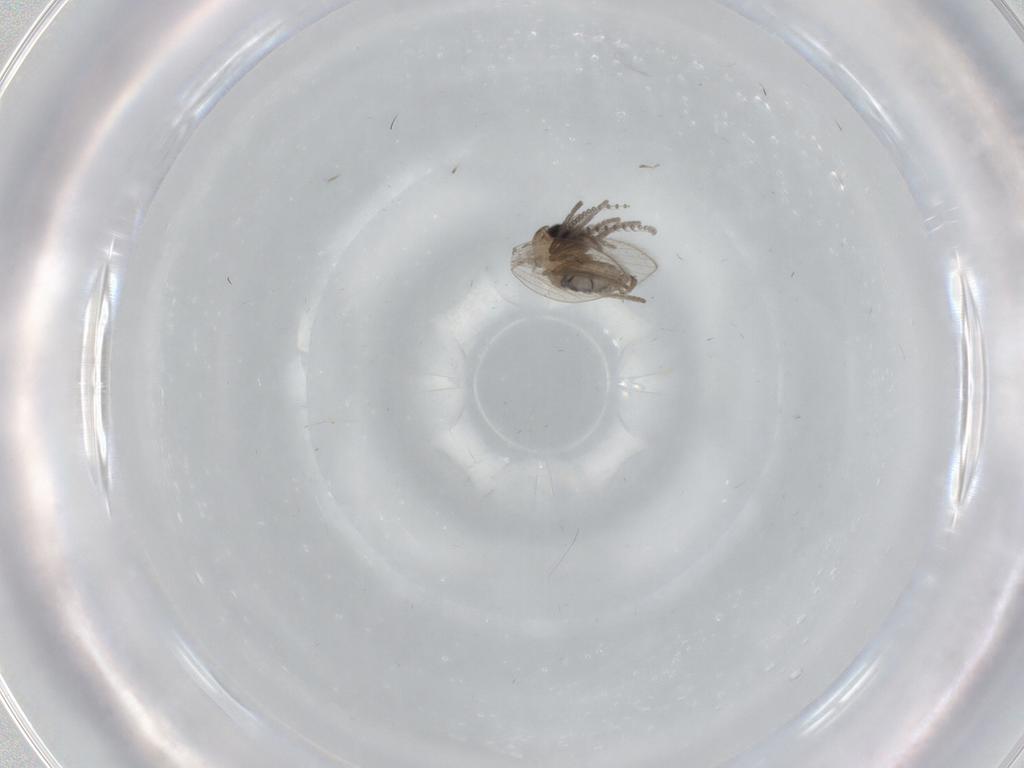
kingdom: Animalia
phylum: Arthropoda
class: Insecta
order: Diptera
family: Psychodidae
